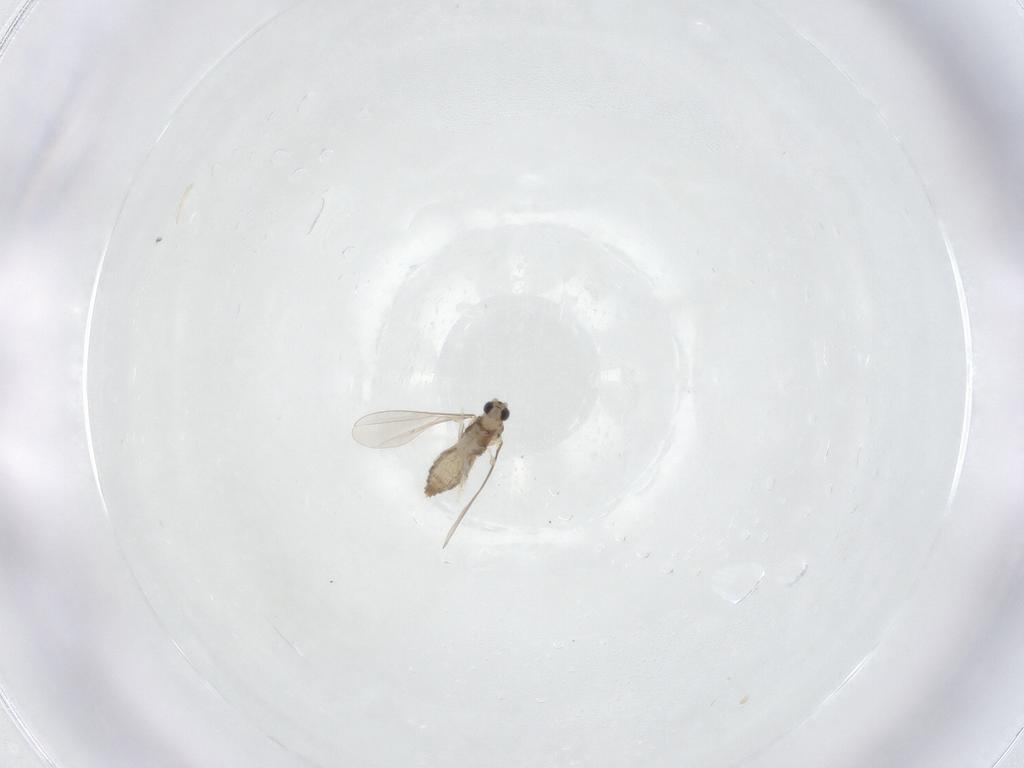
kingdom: Animalia
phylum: Arthropoda
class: Insecta
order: Diptera
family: Cecidomyiidae
